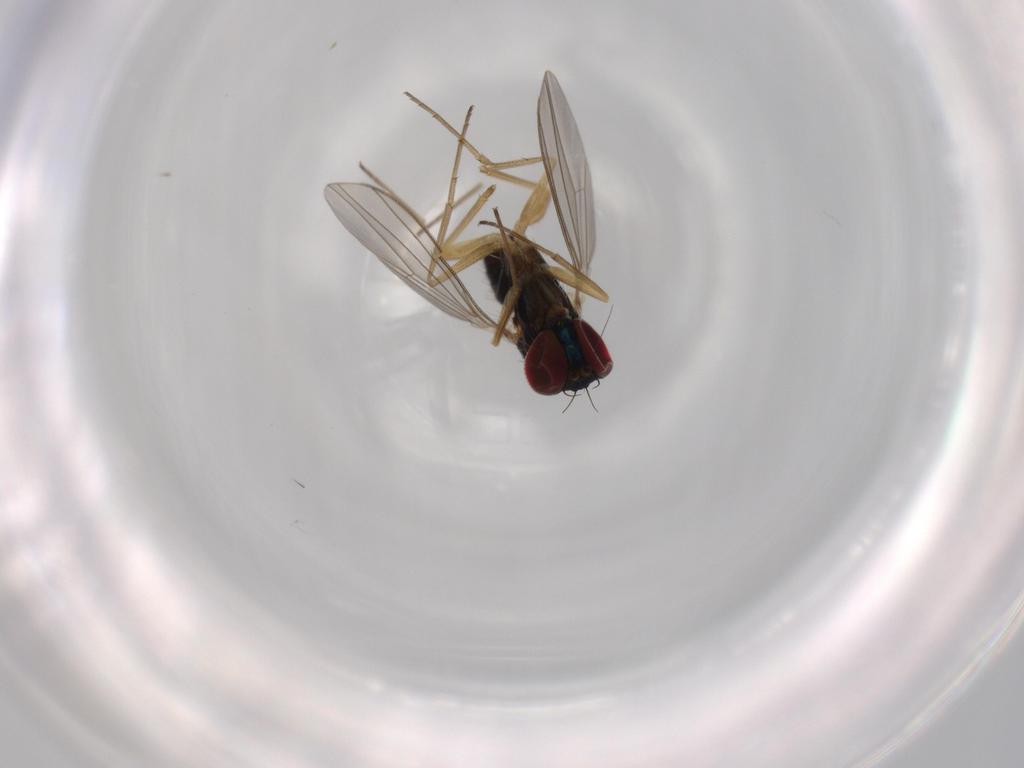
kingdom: Animalia
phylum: Arthropoda
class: Insecta
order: Diptera
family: Dolichopodidae
